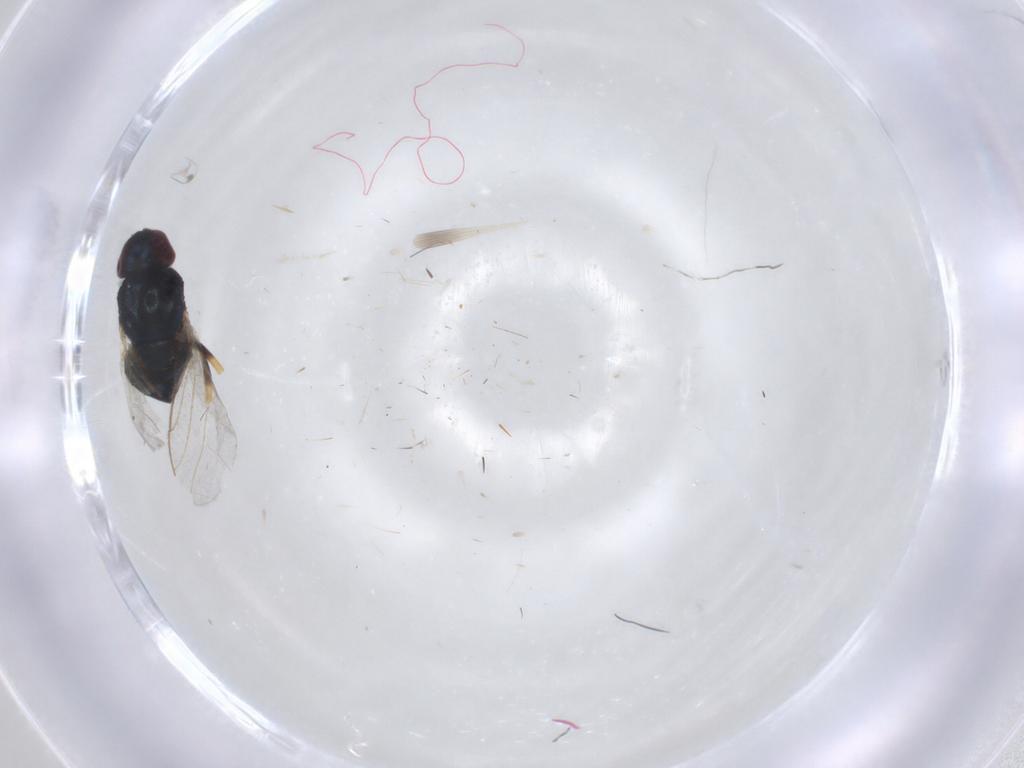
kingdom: Animalia
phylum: Arthropoda
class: Insecta
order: Diptera
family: Chloropidae
